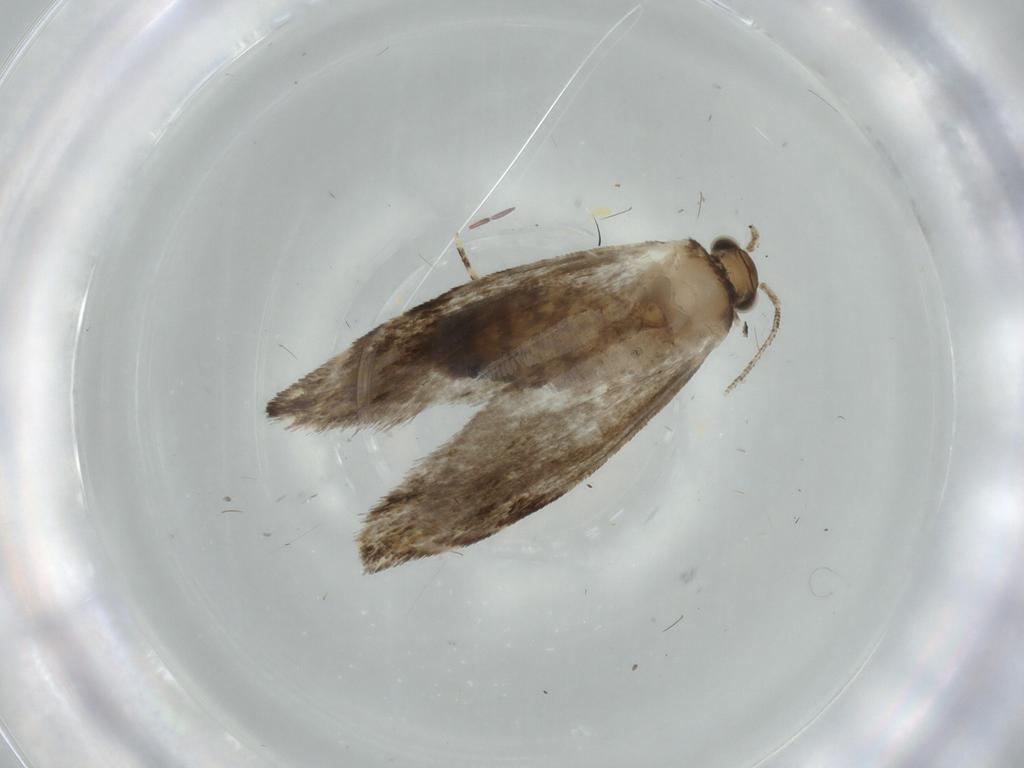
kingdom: Animalia
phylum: Arthropoda
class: Insecta
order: Lepidoptera
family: Tineidae
